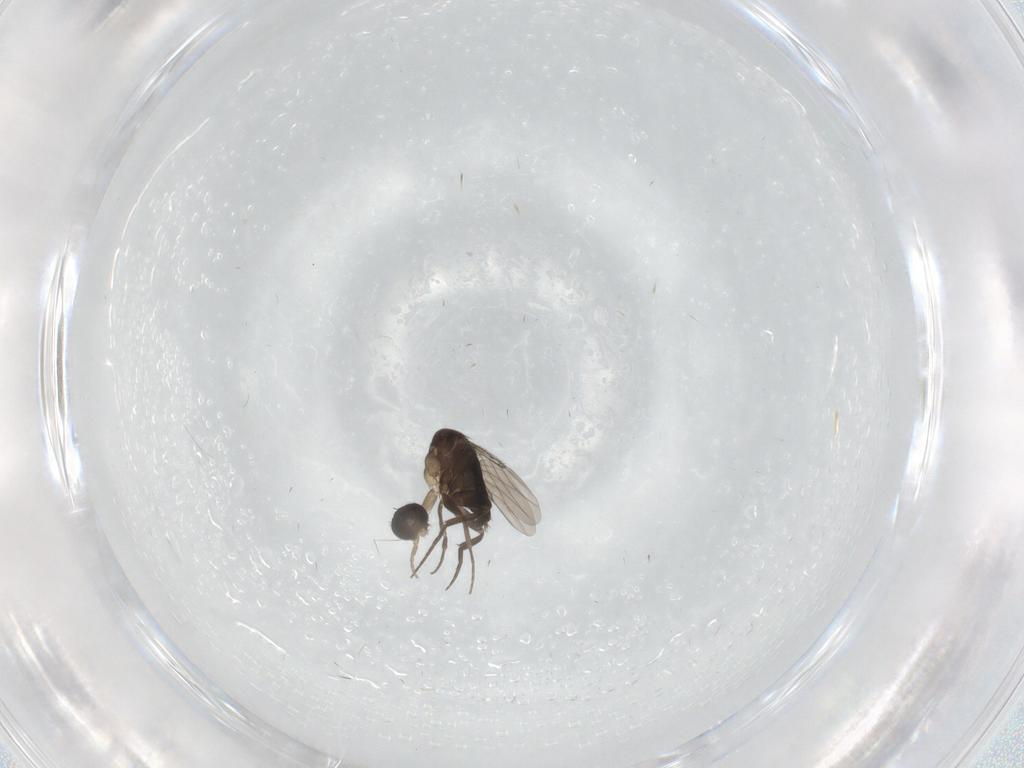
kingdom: Animalia
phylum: Arthropoda
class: Insecta
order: Diptera
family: Phoridae
